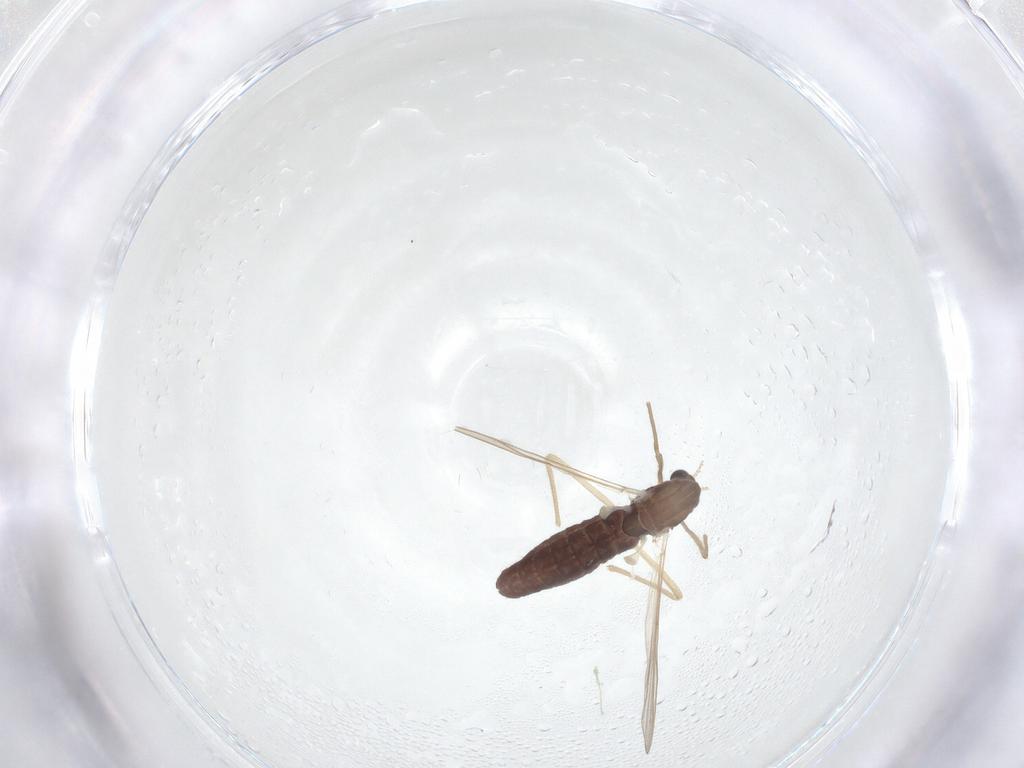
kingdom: Animalia
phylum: Arthropoda
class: Insecta
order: Diptera
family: Chironomidae
